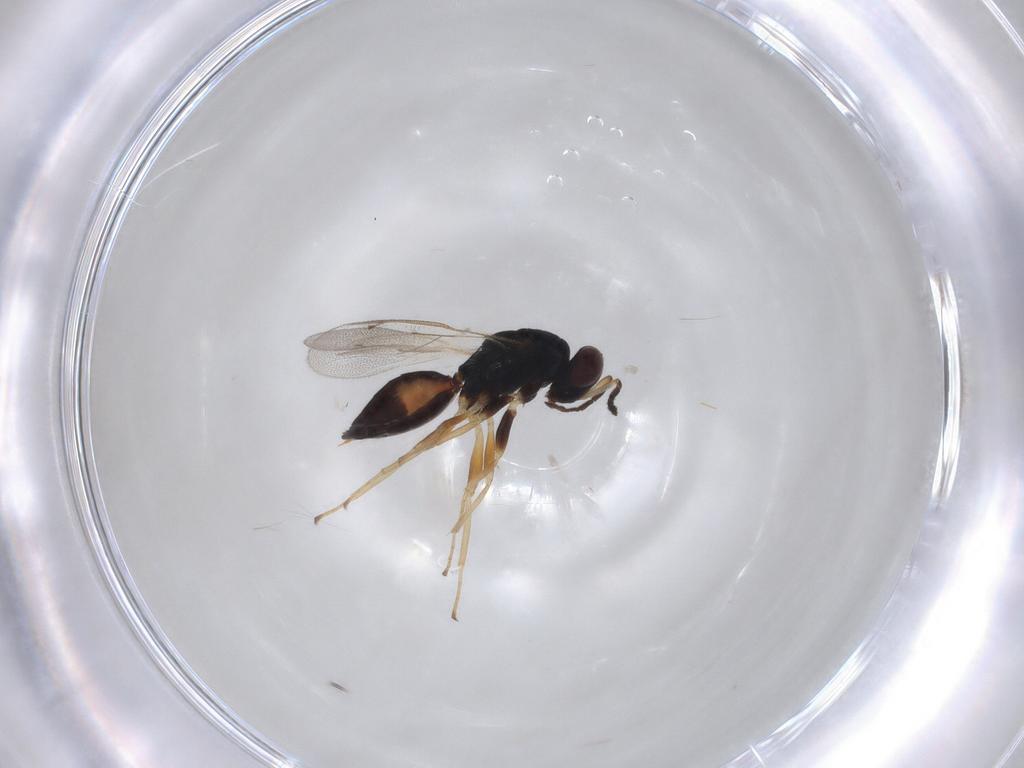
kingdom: Animalia
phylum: Arthropoda
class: Insecta
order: Hymenoptera
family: Eulophidae
